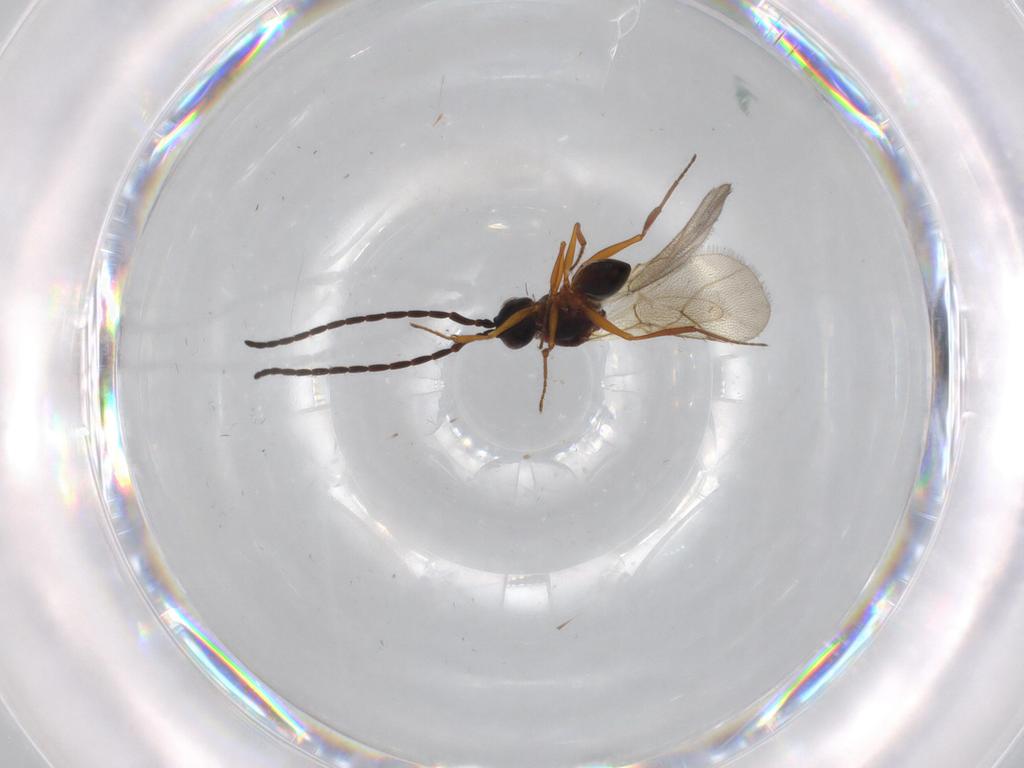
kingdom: Animalia
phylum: Arthropoda
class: Insecta
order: Hymenoptera
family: Figitidae
